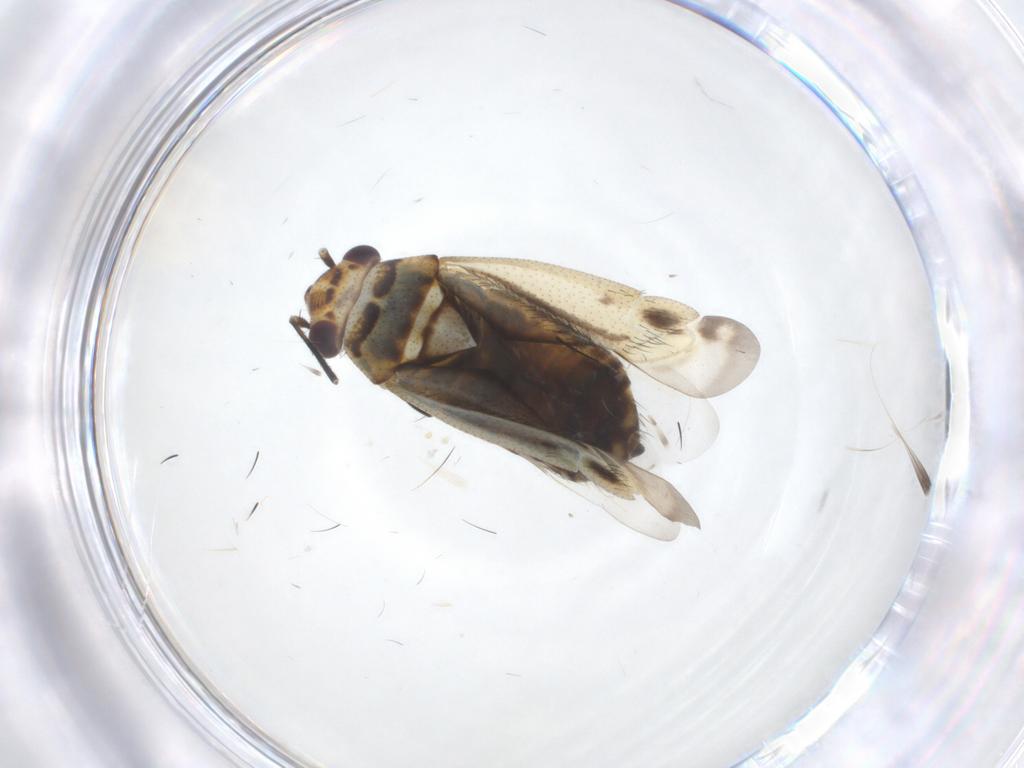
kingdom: Animalia
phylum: Arthropoda
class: Insecta
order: Hemiptera
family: Miridae
